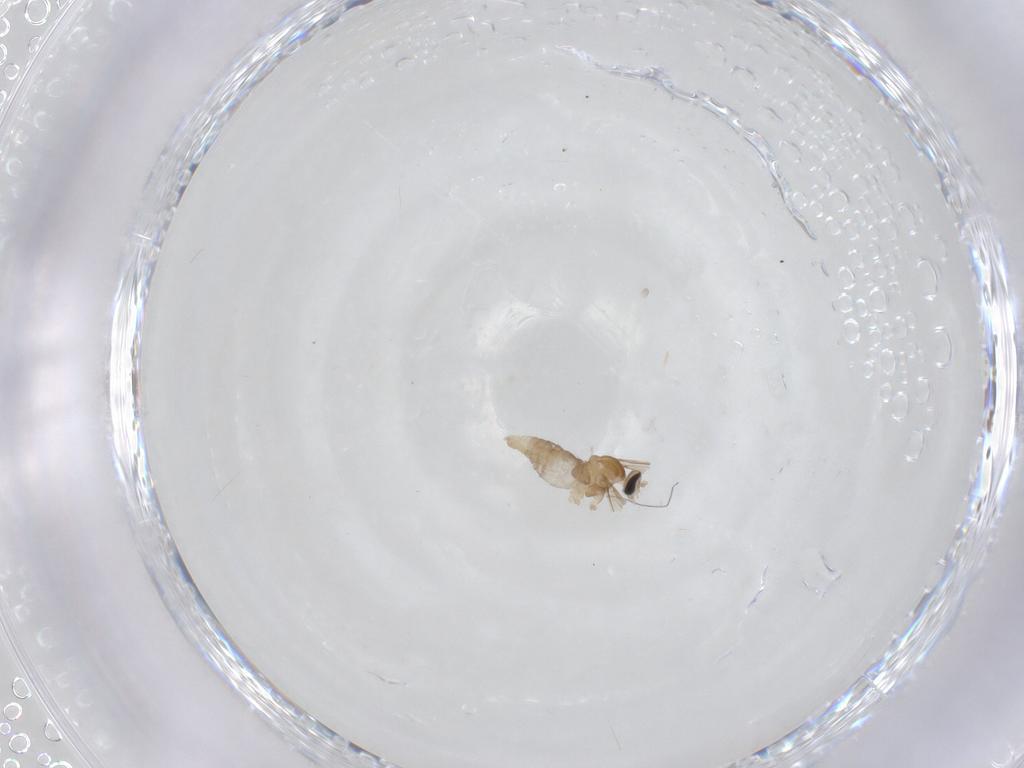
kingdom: Animalia
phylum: Arthropoda
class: Insecta
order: Diptera
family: Cecidomyiidae
